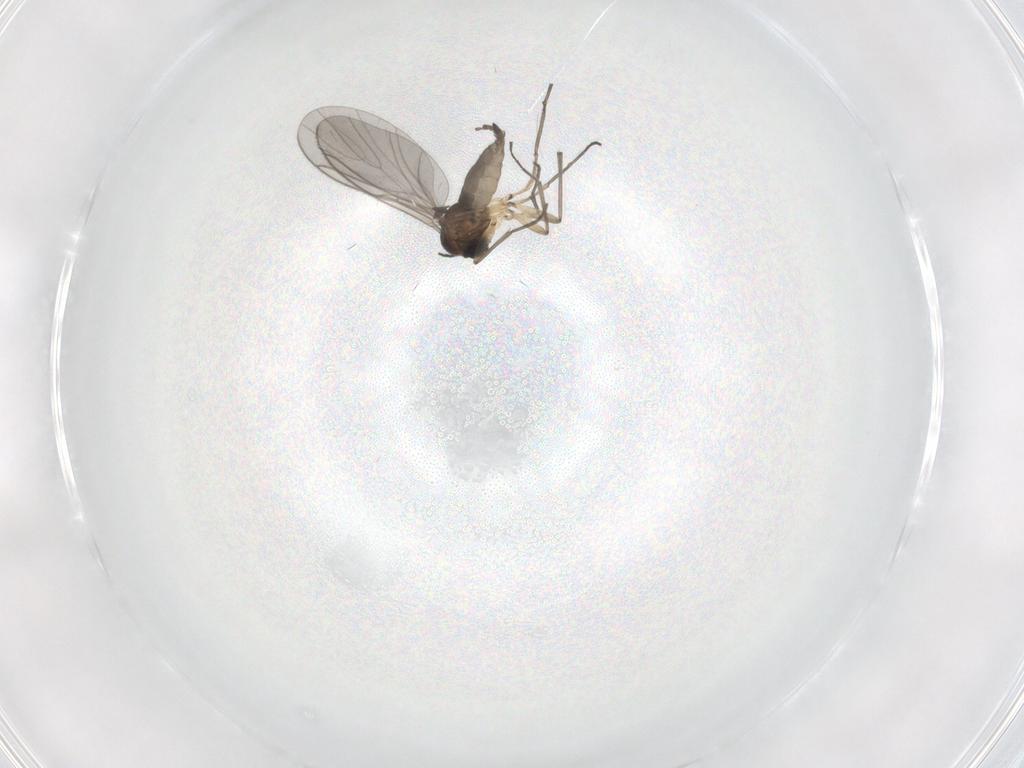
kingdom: Animalia
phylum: Arthropoda
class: Insecta
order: Diptera
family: Sciaridae
